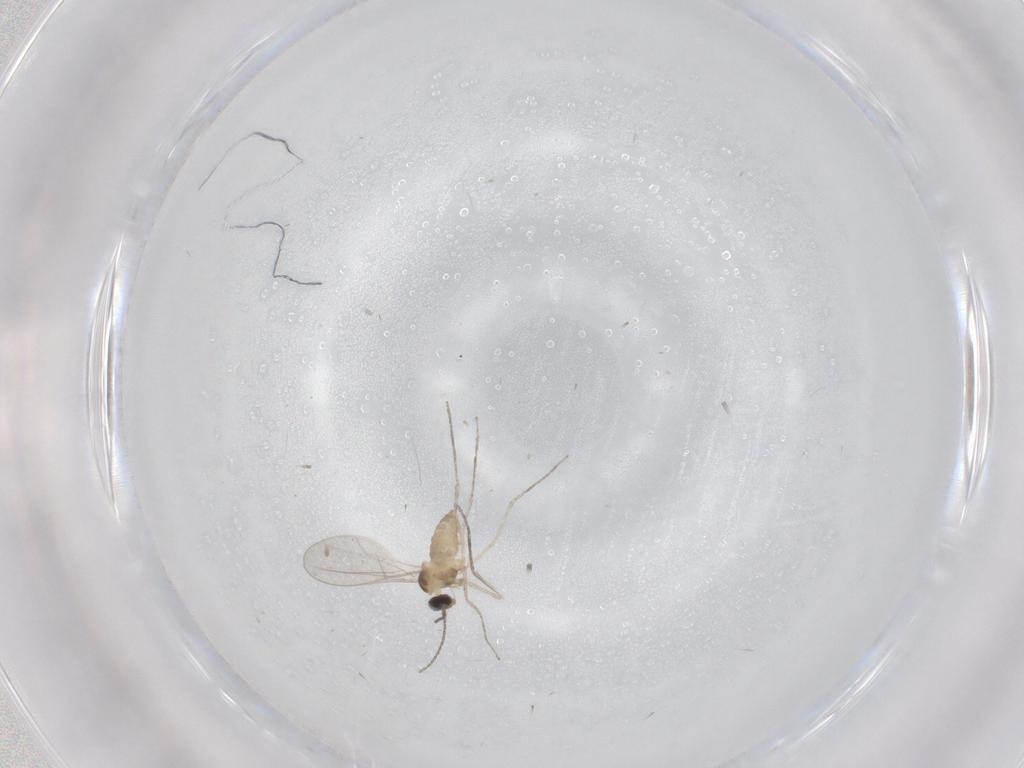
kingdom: Animalia
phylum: Arthropoda
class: Insecta
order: Diptera
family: Cecidomyiidae
